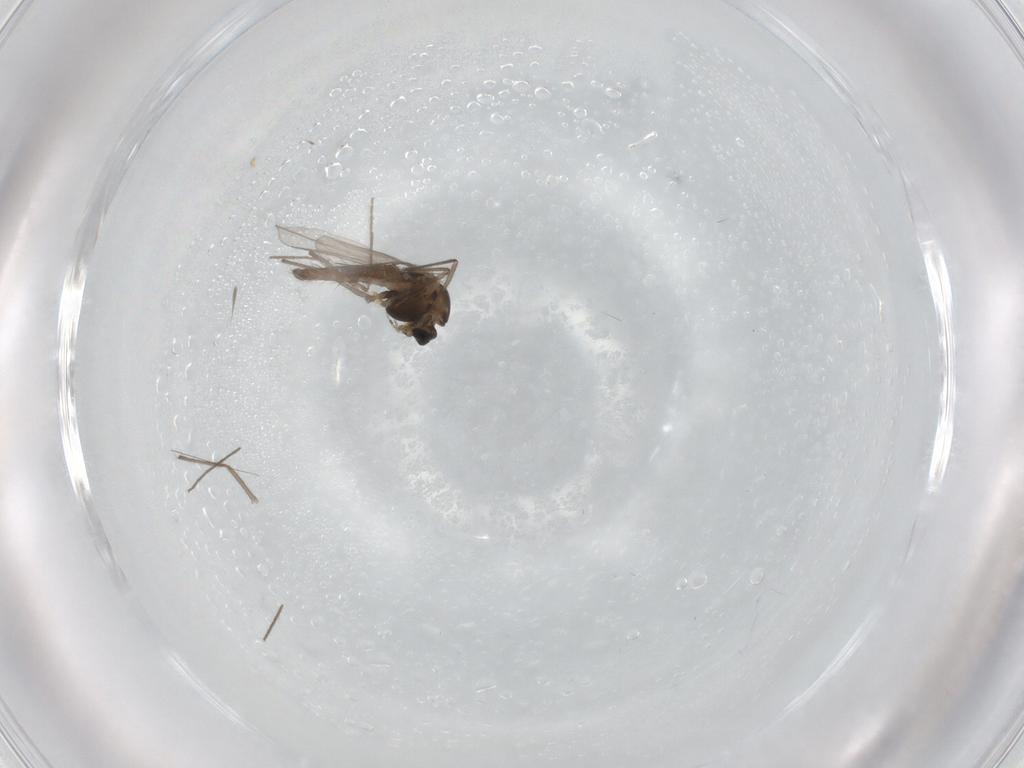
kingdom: Animalia
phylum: Arthropoda
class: Insecta
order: Diptera
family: Chironomidae
